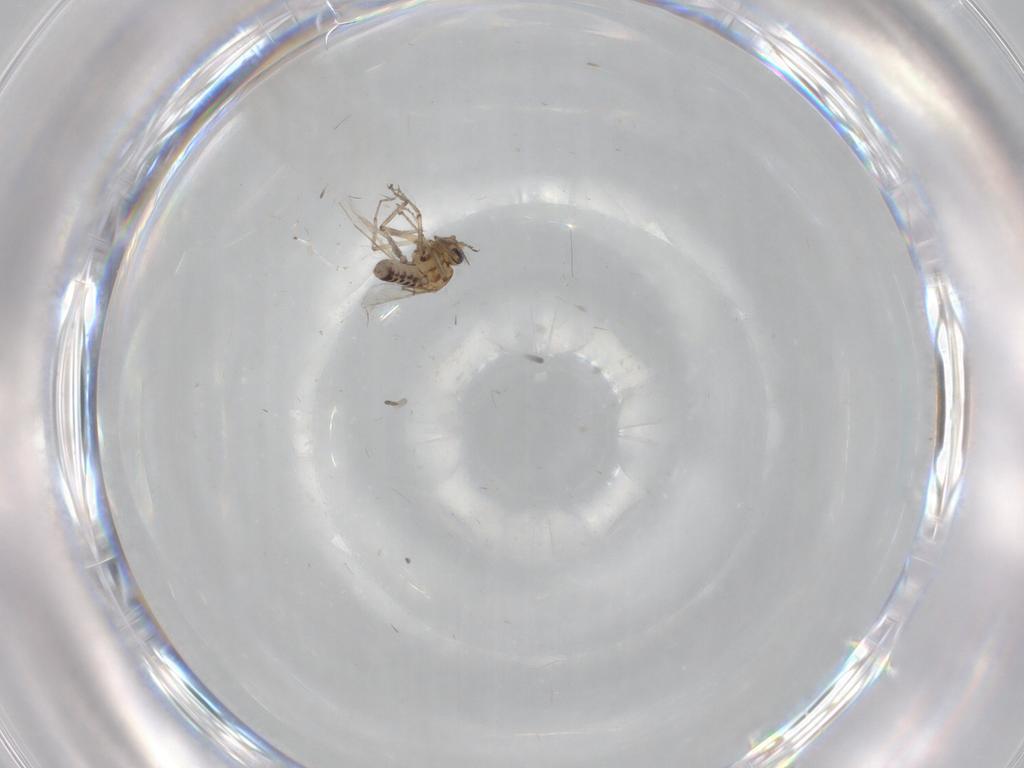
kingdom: Animalia
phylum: Arthropoda
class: Insecta
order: Diptera
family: Ceratopogonidae
